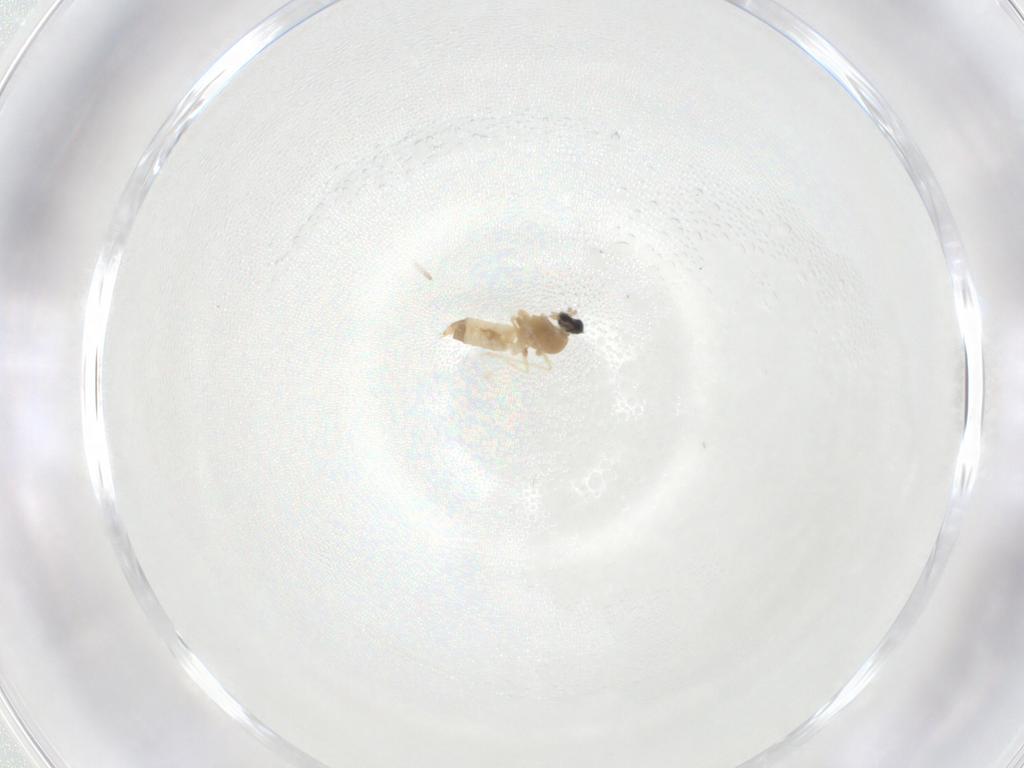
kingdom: Animalia
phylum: Arthropoda
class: Insecta
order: Diptera
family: Cecidomyiidae
